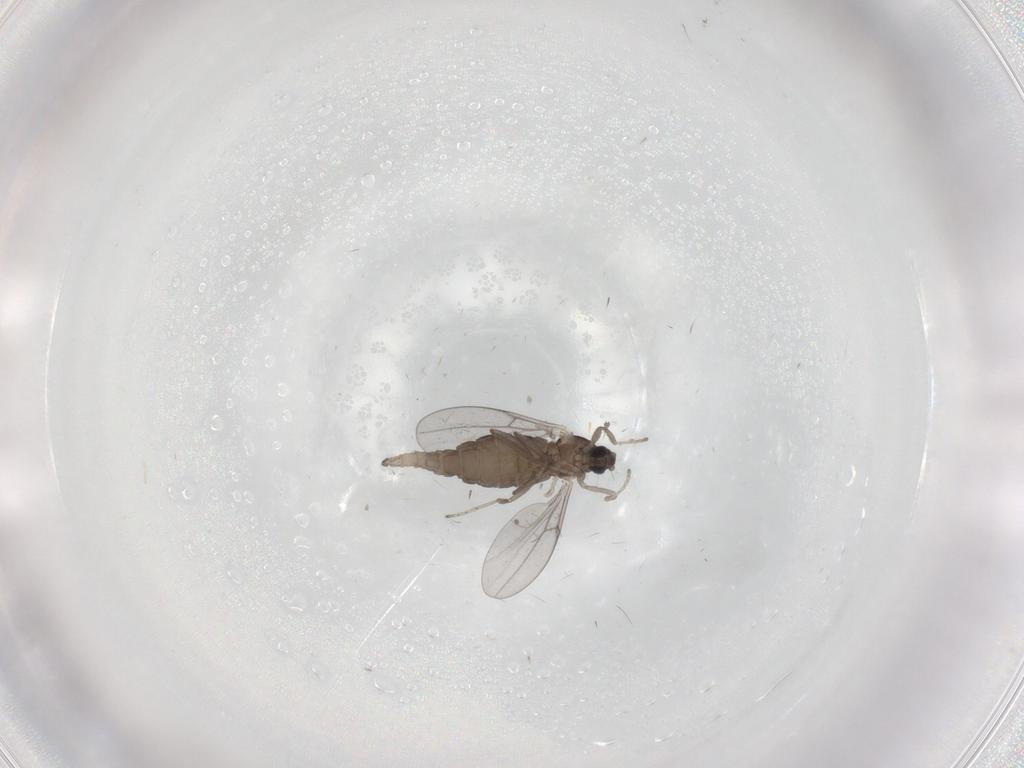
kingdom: Animalia
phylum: Arthropoda
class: Insecta
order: Diptera
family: Cecidomyiidae
